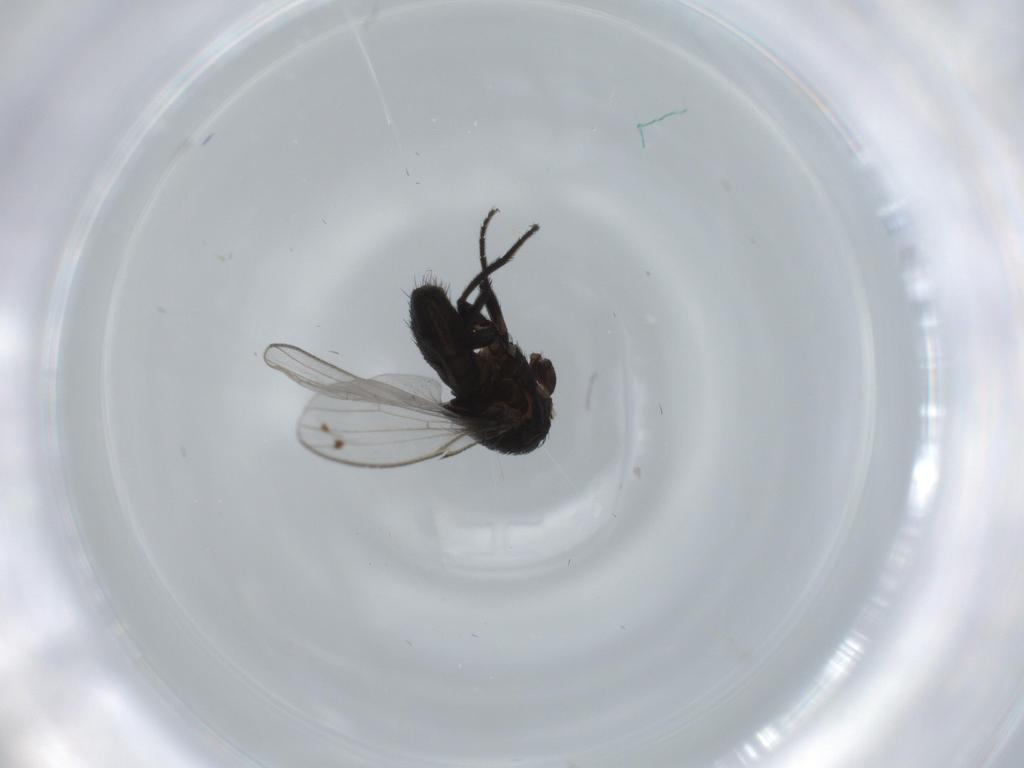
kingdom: Animalia
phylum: Arthropoda
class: Insecta
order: Diptera
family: Milichiidae
